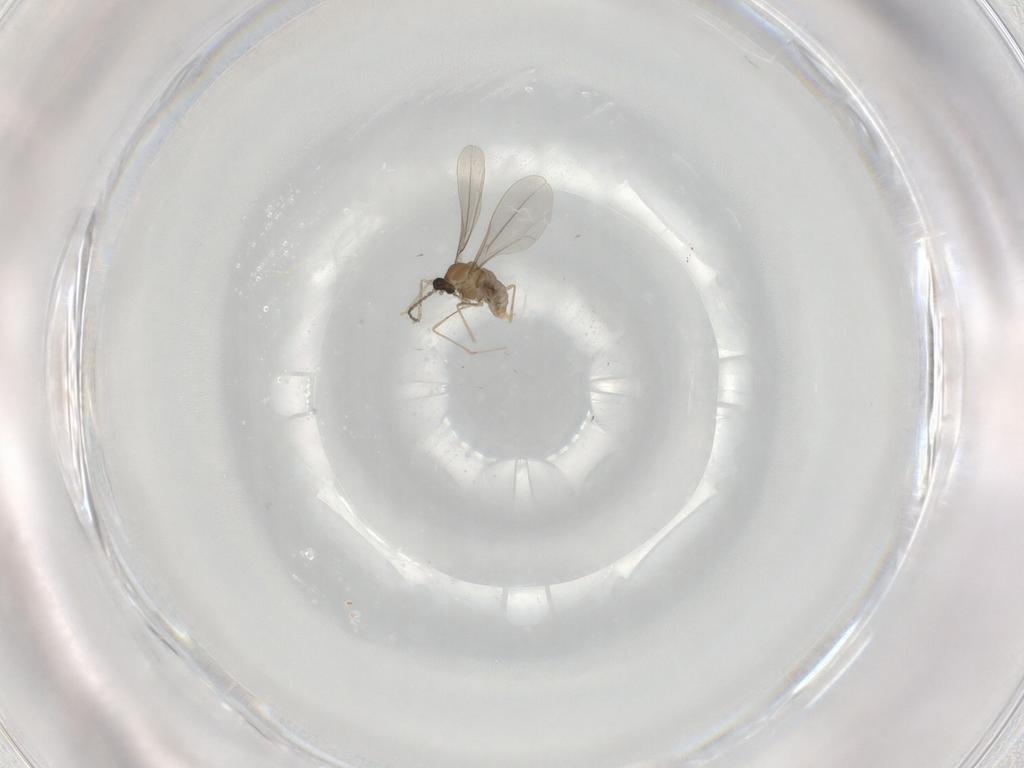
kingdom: Animalia
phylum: Arthropoda
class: Insecta
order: Diptera
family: Cecidomyiidae
